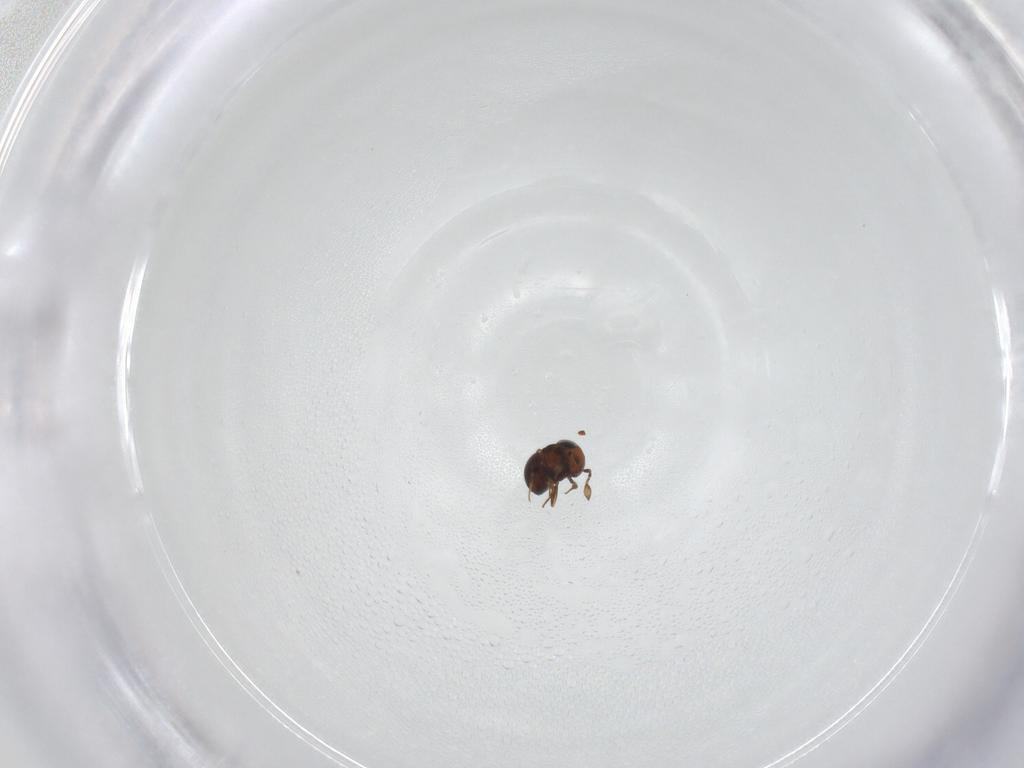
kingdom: Animalia
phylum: Arthropoda
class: Insecta
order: Hymenoptera
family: Scelionidae
